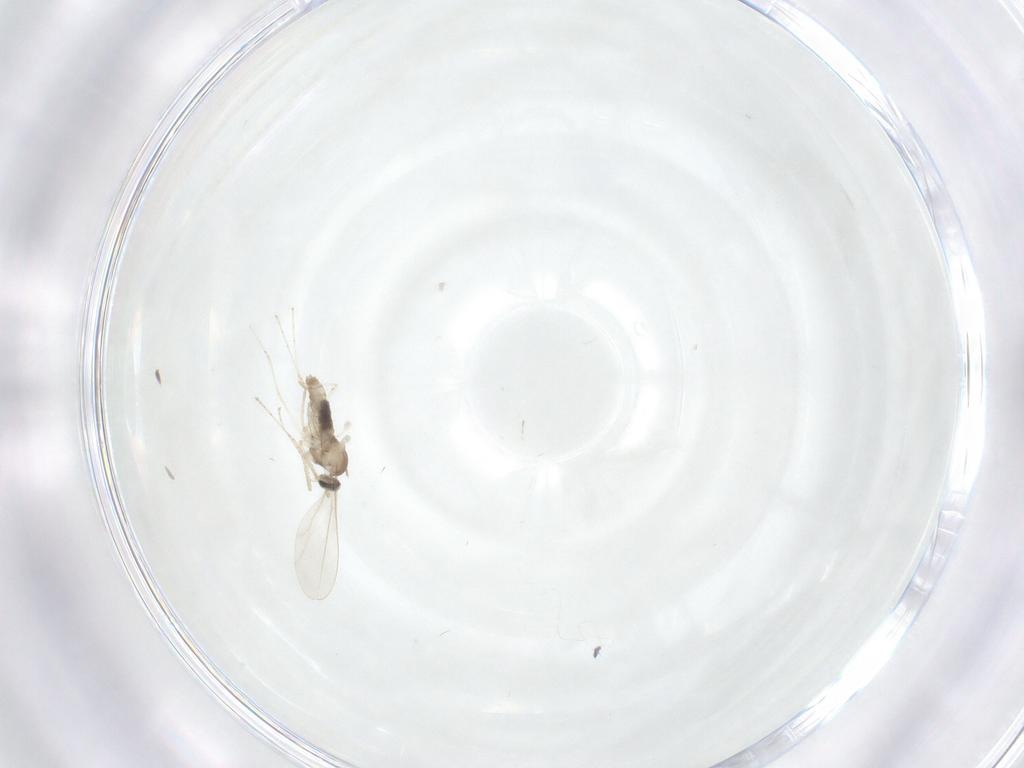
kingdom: Animalia
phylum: Arthropoda
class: Insecta
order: Diptera
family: Cecidomyiidae
